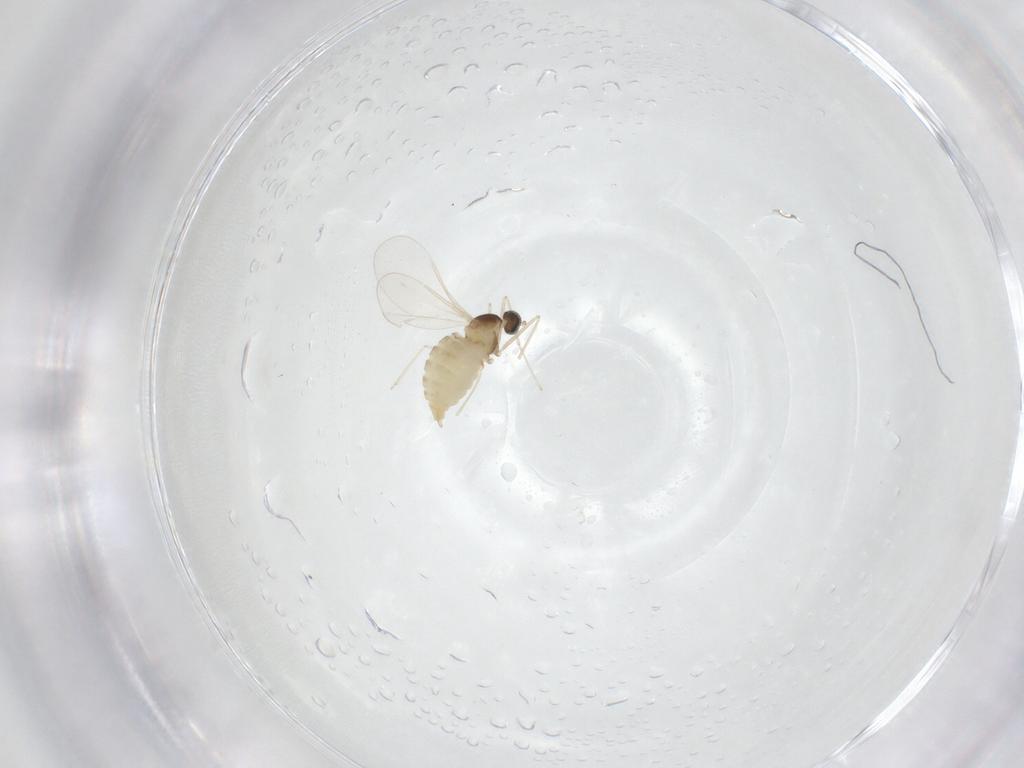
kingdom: Animalia
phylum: Arthropoda
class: Insecta
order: Diptera
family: Cecidomyiidae
